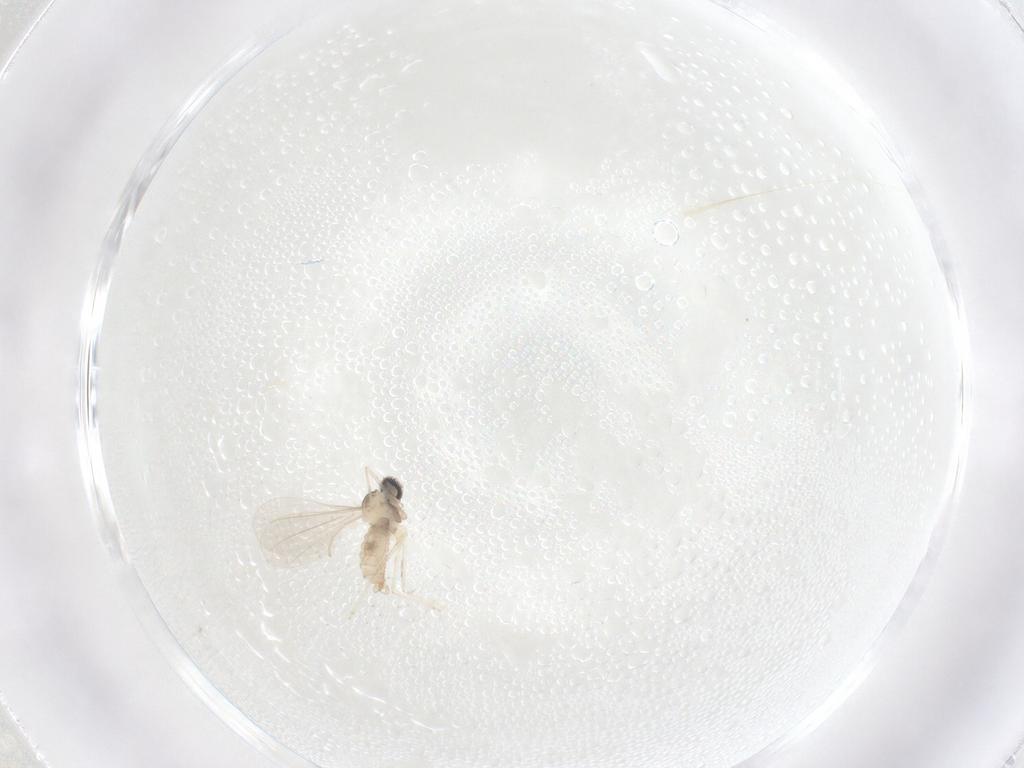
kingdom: Animalia
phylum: Arthropoda
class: Insecta
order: Diptera
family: Cecidomyiidae
